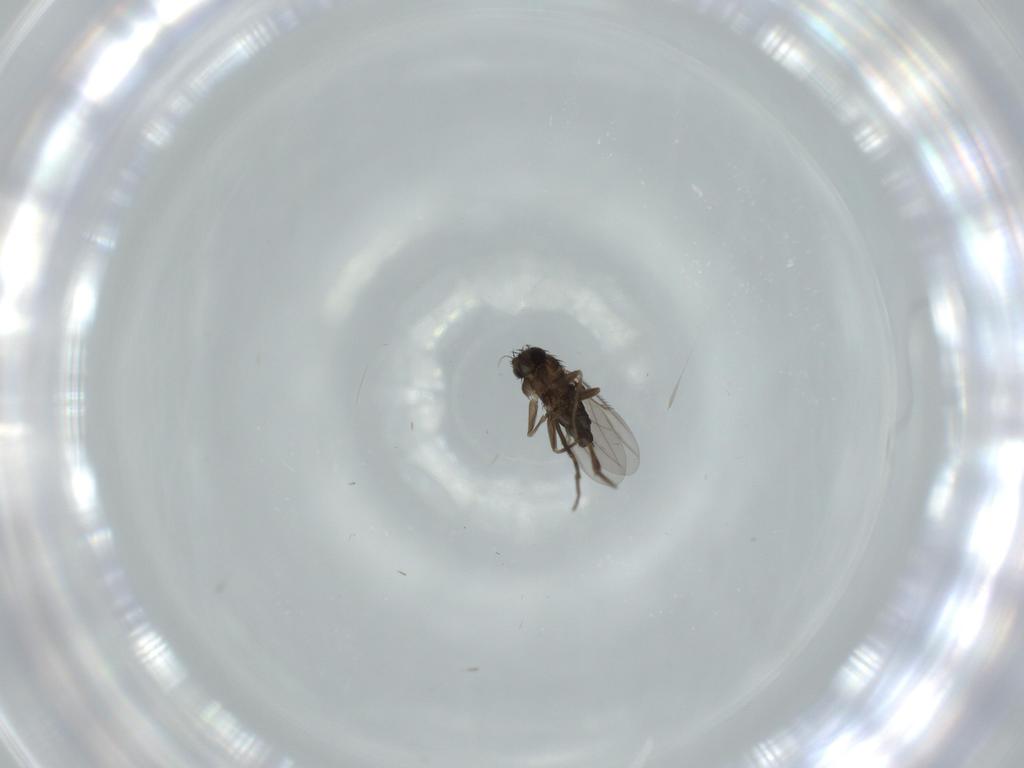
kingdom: Animalia
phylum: Arthropoda
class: Insecta
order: Diptera
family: Phoridae
